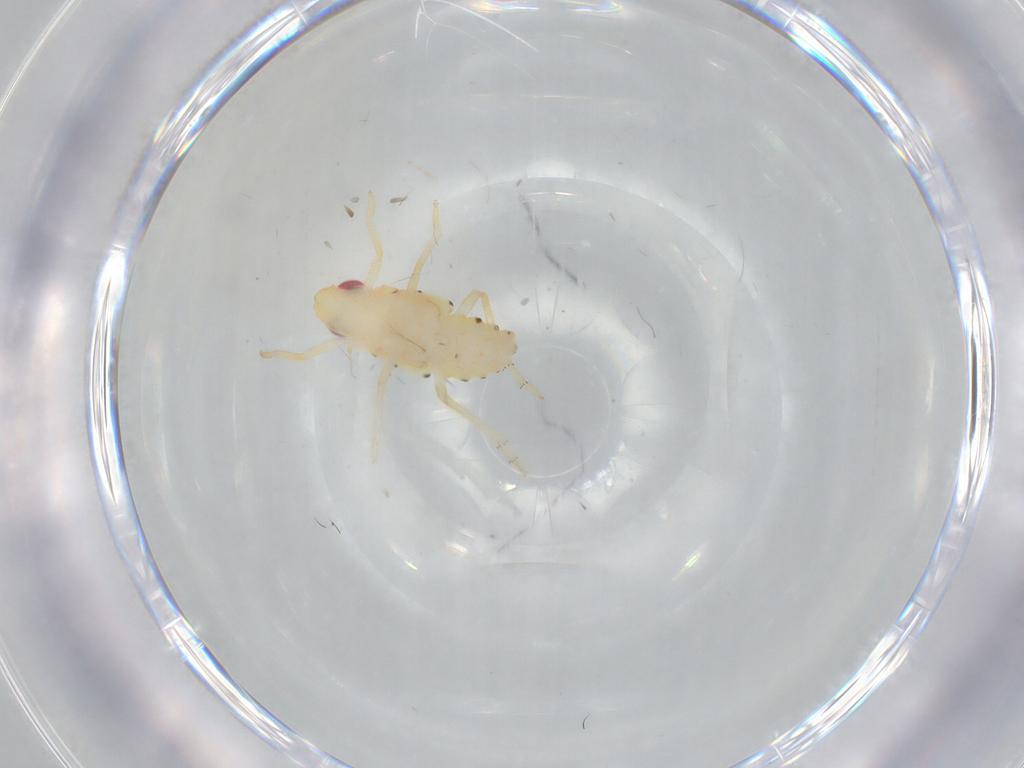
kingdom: Animalia
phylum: Arthropoda
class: Insecta
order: Hemiptera
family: Tropiduchidae
